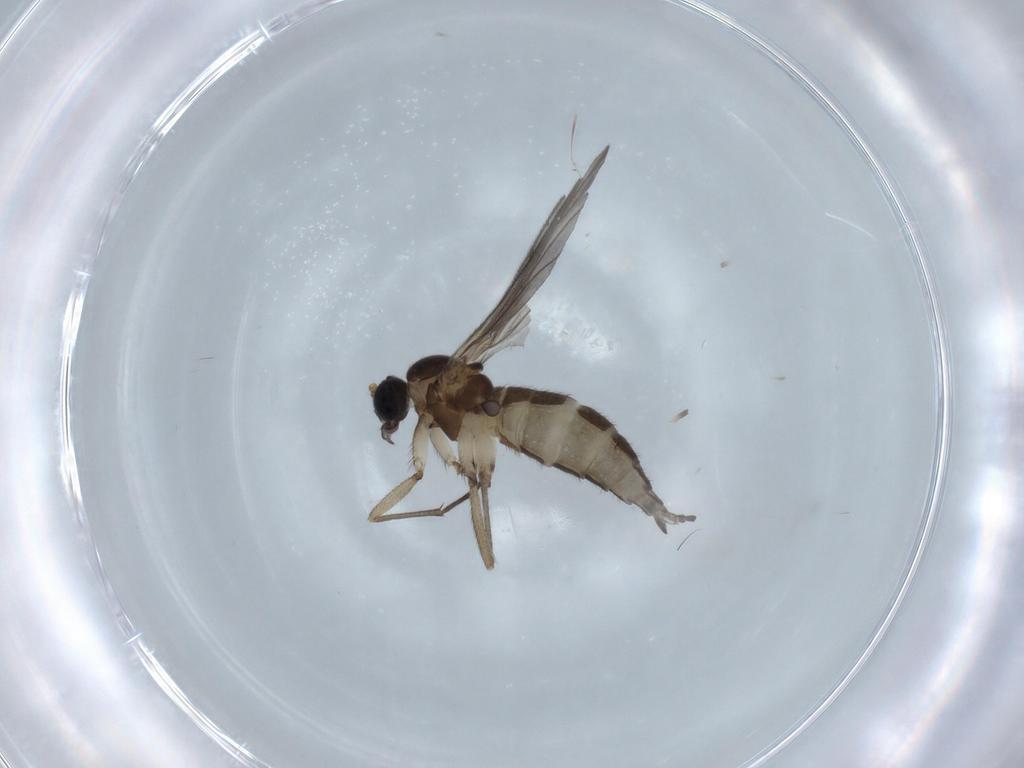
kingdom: Animalia
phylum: Arthropoda
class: Insecta
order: Diptera
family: Sciaridae
